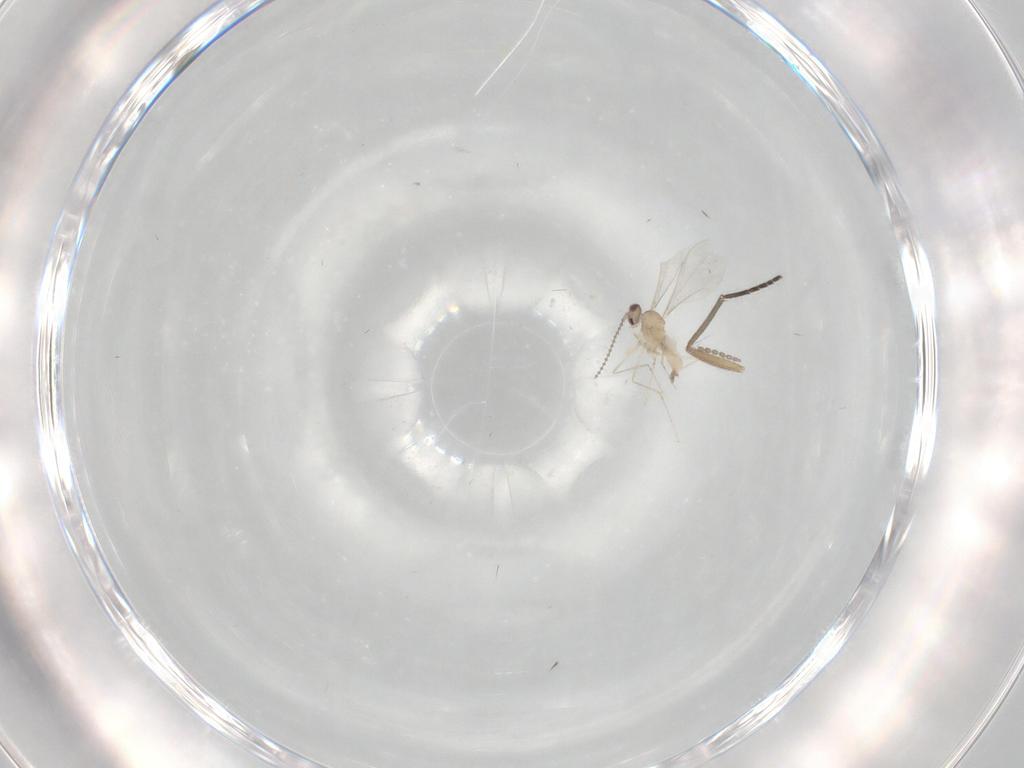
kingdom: Animalia
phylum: Arthropoda
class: Insecta
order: Diptera
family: Sciaridae
